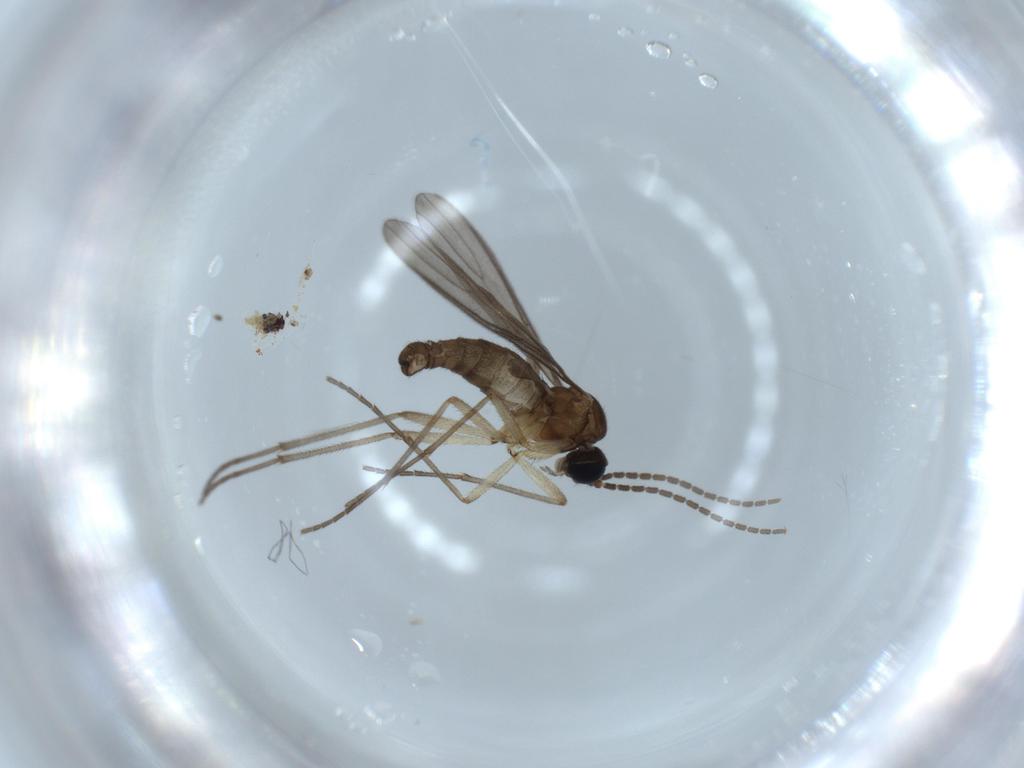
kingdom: Animalia
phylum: Arthropoda
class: Insecta
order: Diptera
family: Sciaridae
